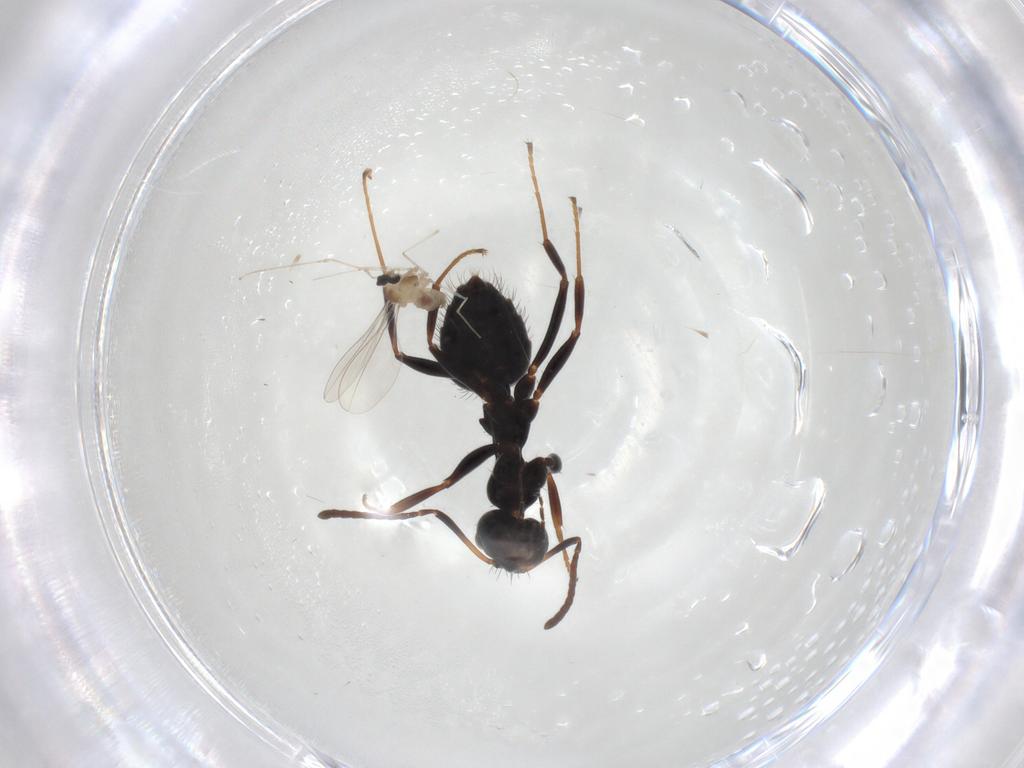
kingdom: Animalia
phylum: Arthropoda
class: Insecta
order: Hymenoptera
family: Formicidae
